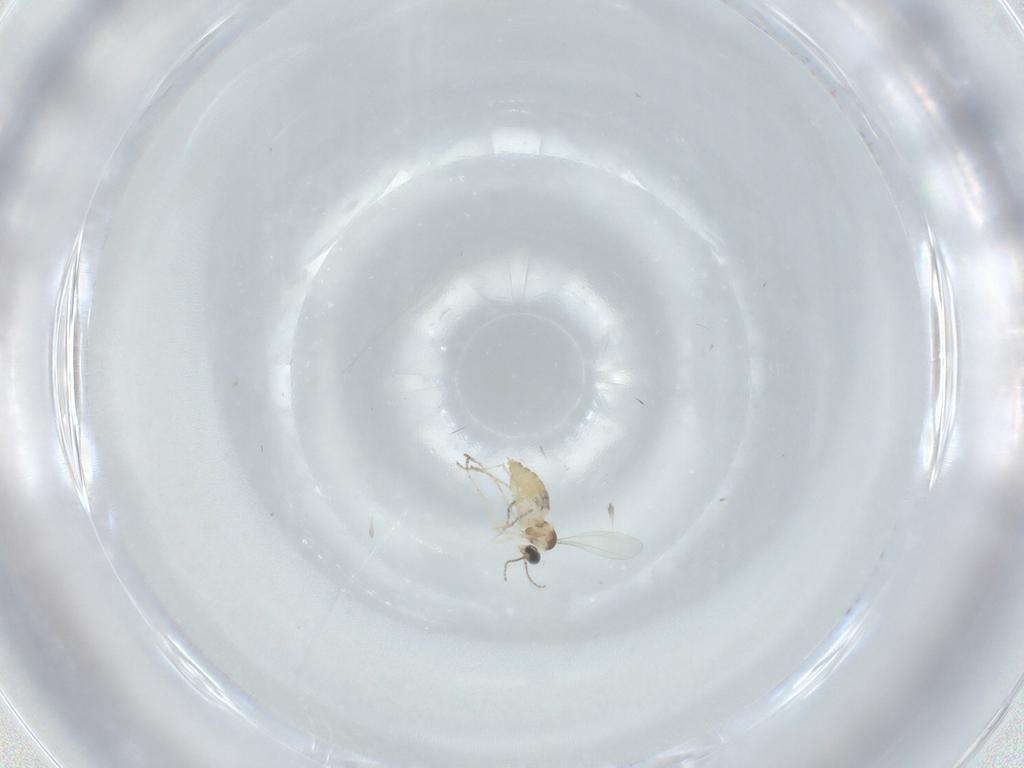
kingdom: Animalia
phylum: Arthropoda
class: Insecta
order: Diptera
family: Cecidomyiidae
